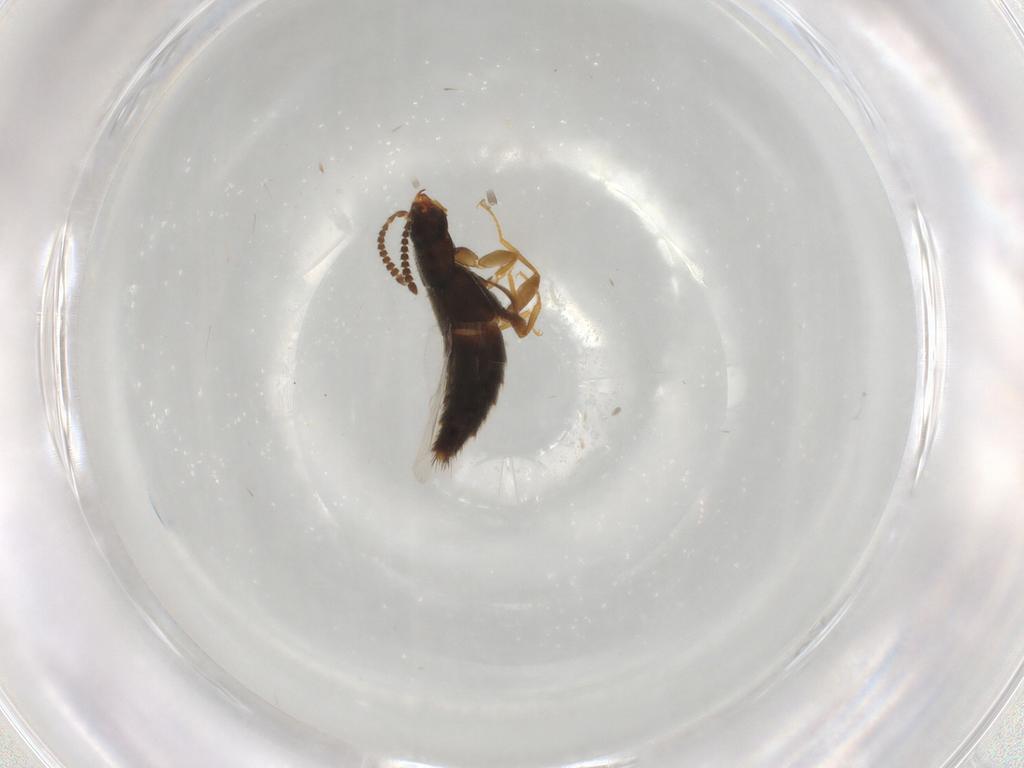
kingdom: Animalia
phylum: Arthropoda
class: Insecta
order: Coleoptera
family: Staphylinidae
